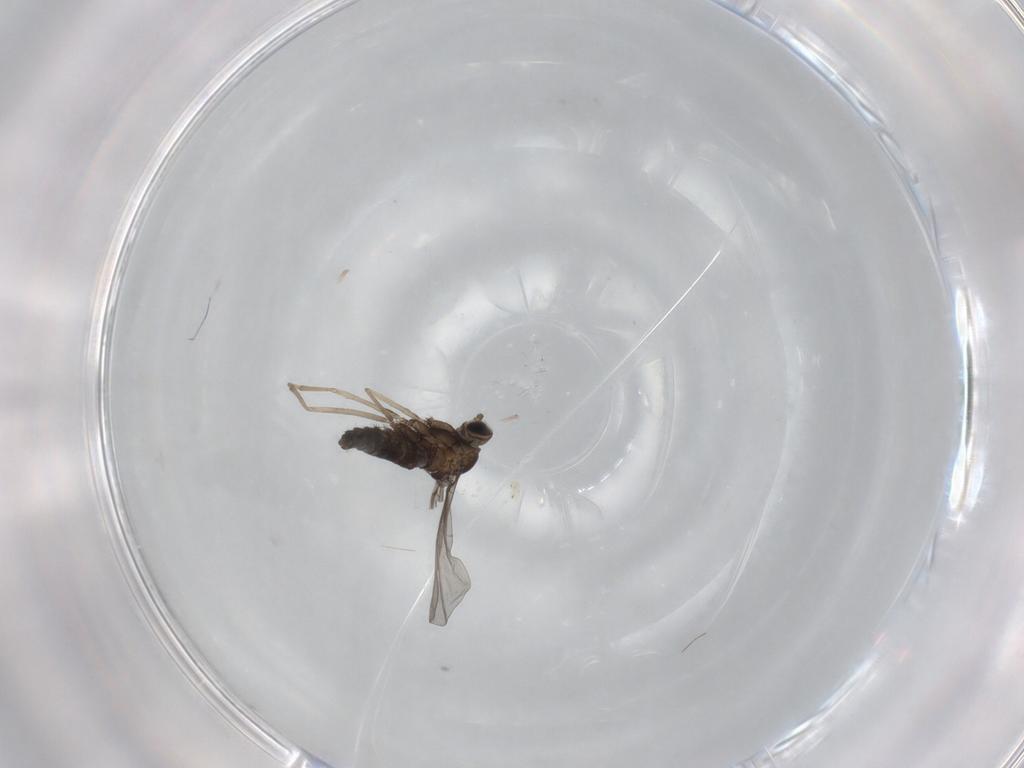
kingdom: Animalia
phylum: Arthropoda
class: Insecta
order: Diptera
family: Cecidomyiidae
